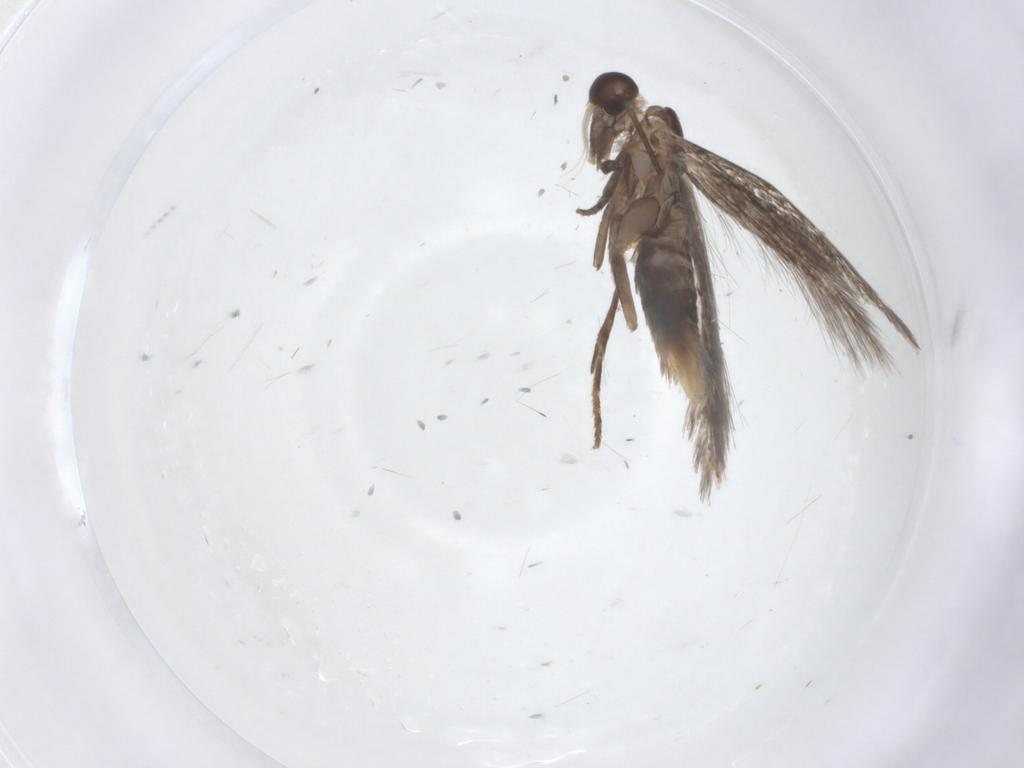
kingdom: Animalia
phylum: Arthropoda
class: Insecta
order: Lepidoptera
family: Elachistidae
